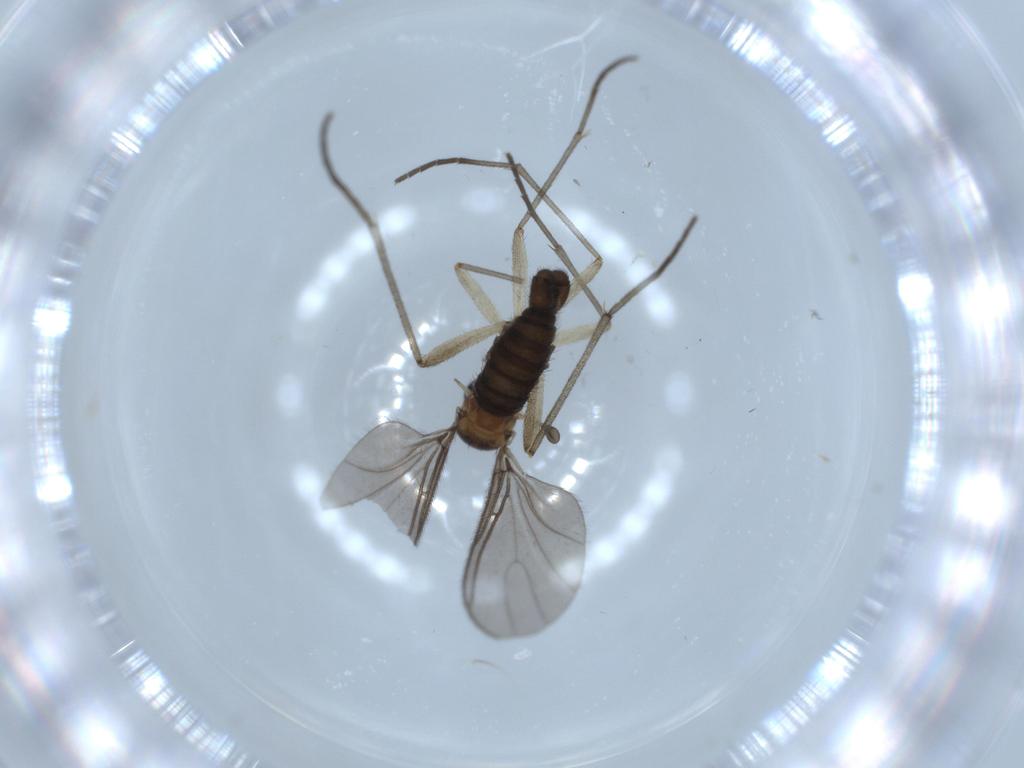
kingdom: Animalia
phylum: Arthropoda
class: Insecta
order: Diptera
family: Sciaridae
